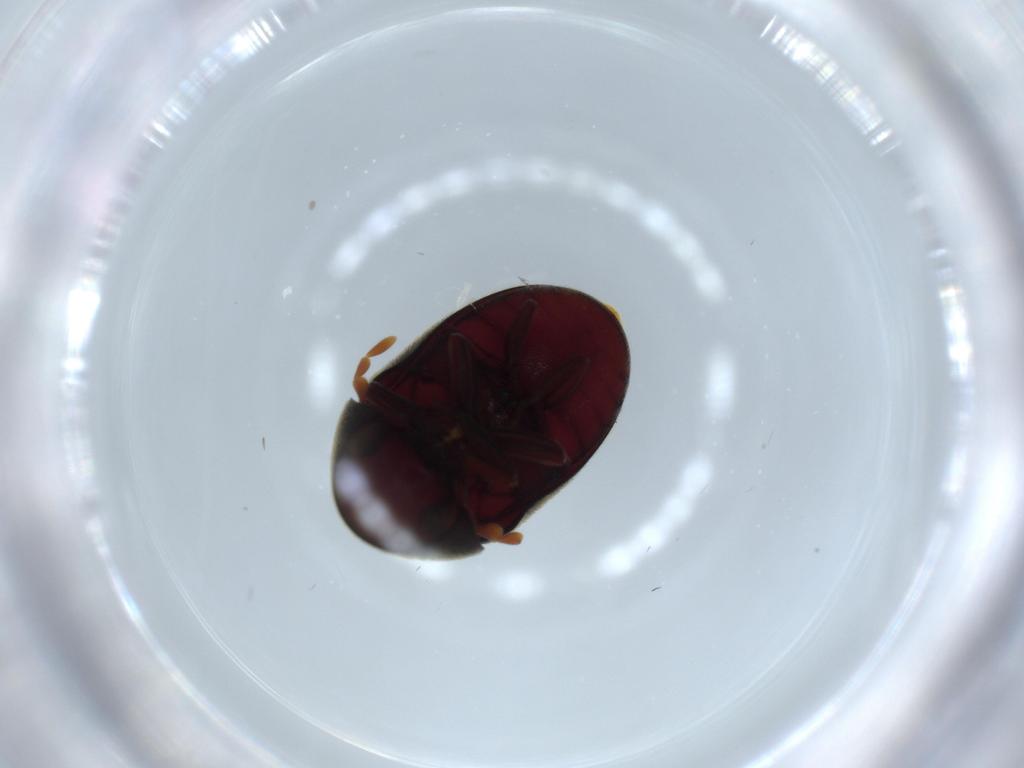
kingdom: Animalia
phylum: Arthropoda
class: Insecta
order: Coleoptera
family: Ptinidae
